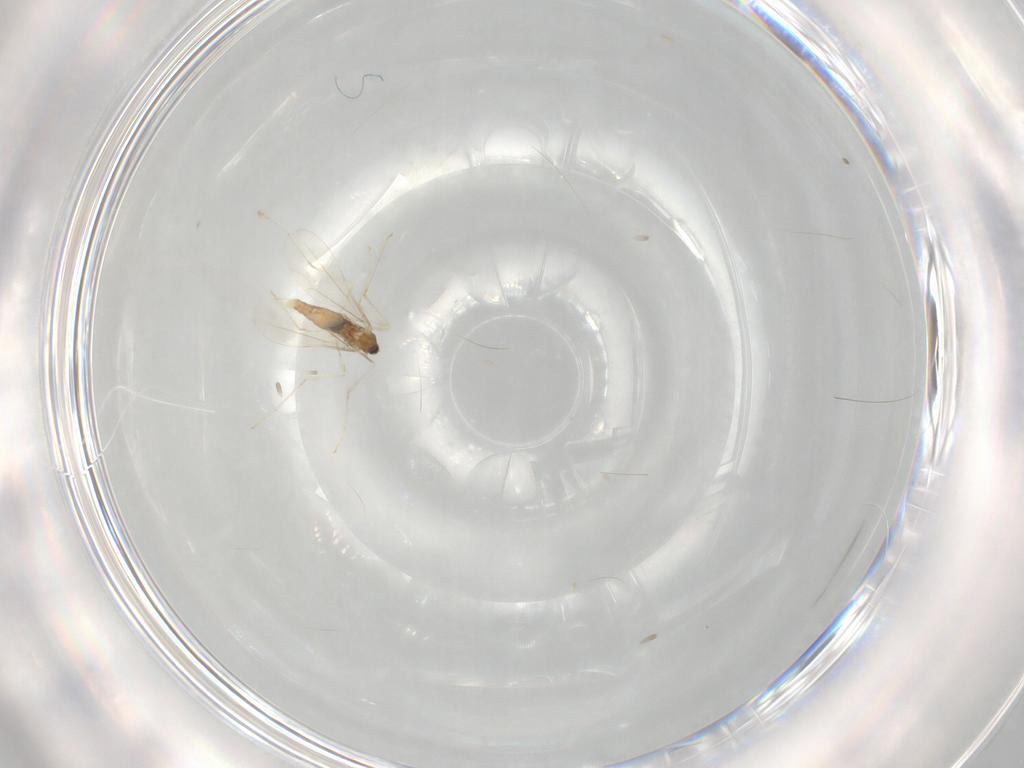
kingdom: Animalia
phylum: Arthropoda
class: Insecta
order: Diptera
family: Cecidomyiidae
